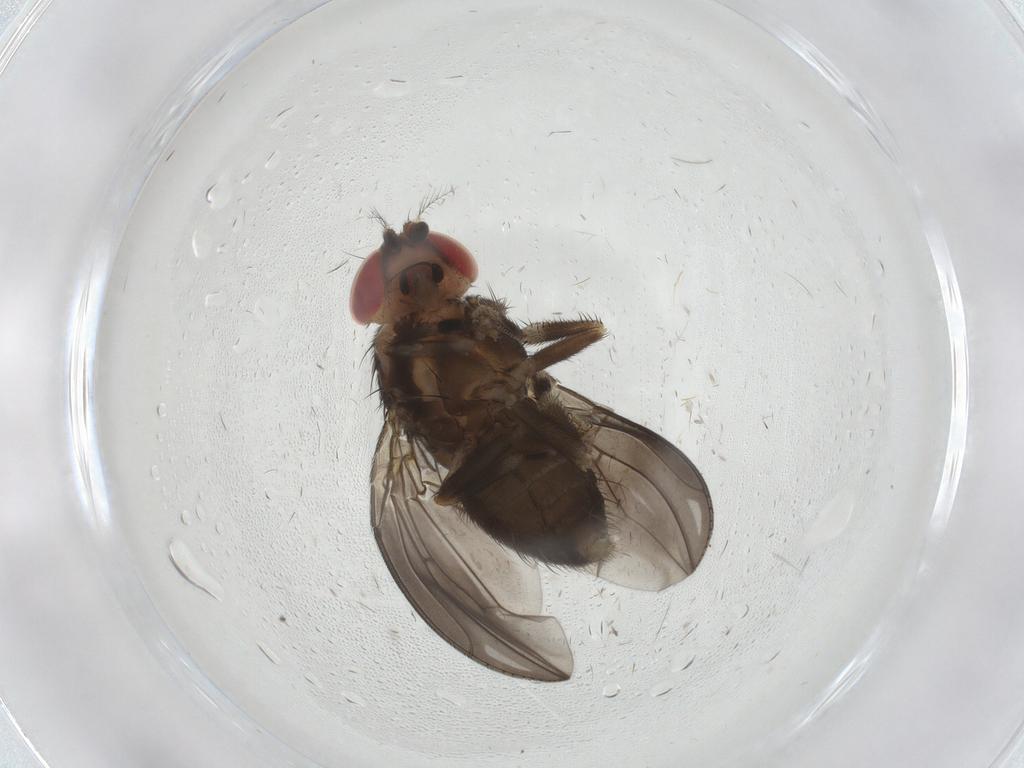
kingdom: Animalia
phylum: Arthropoda
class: Insecta
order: Diptera
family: Drosophilidae
